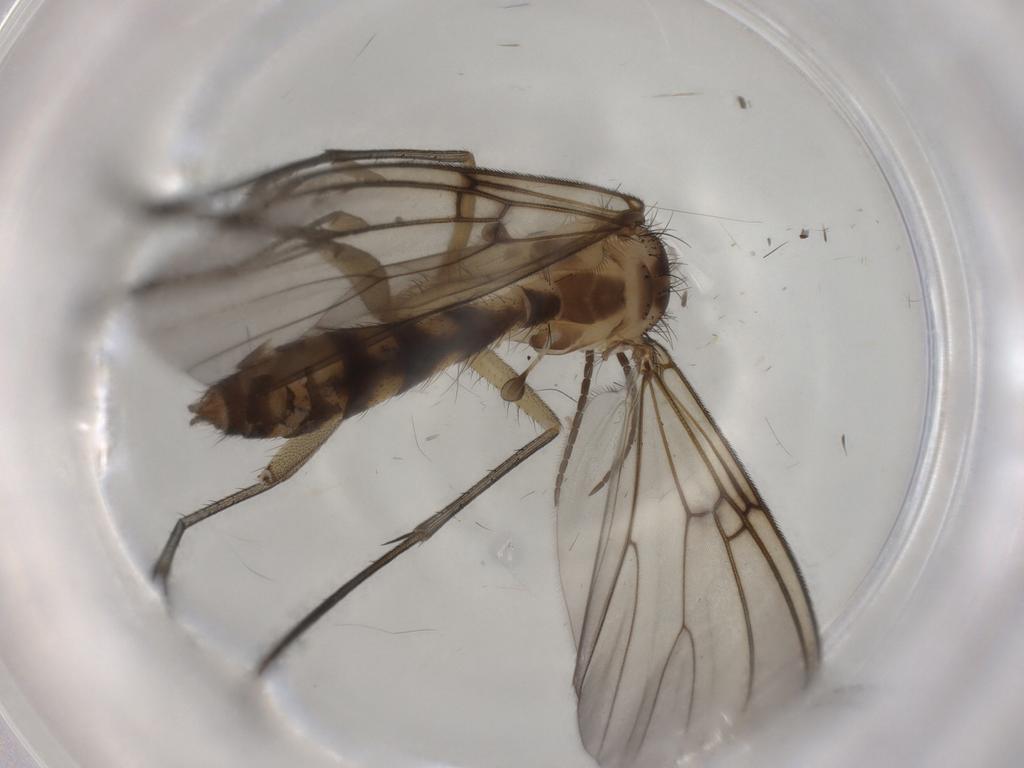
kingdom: Animalia
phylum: Arthropoda
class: Insecta
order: Diptera
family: Sciaridae
